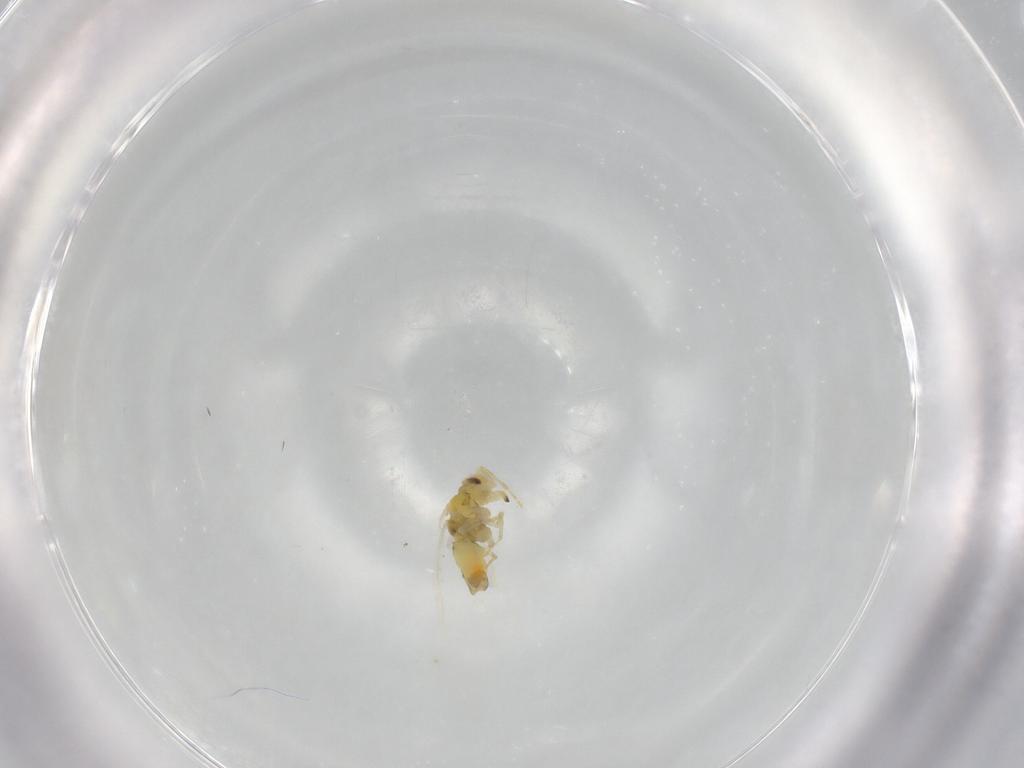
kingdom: Animalia
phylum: Arthropoda
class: Insecta
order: Hemiptera
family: Aleyrodidae
